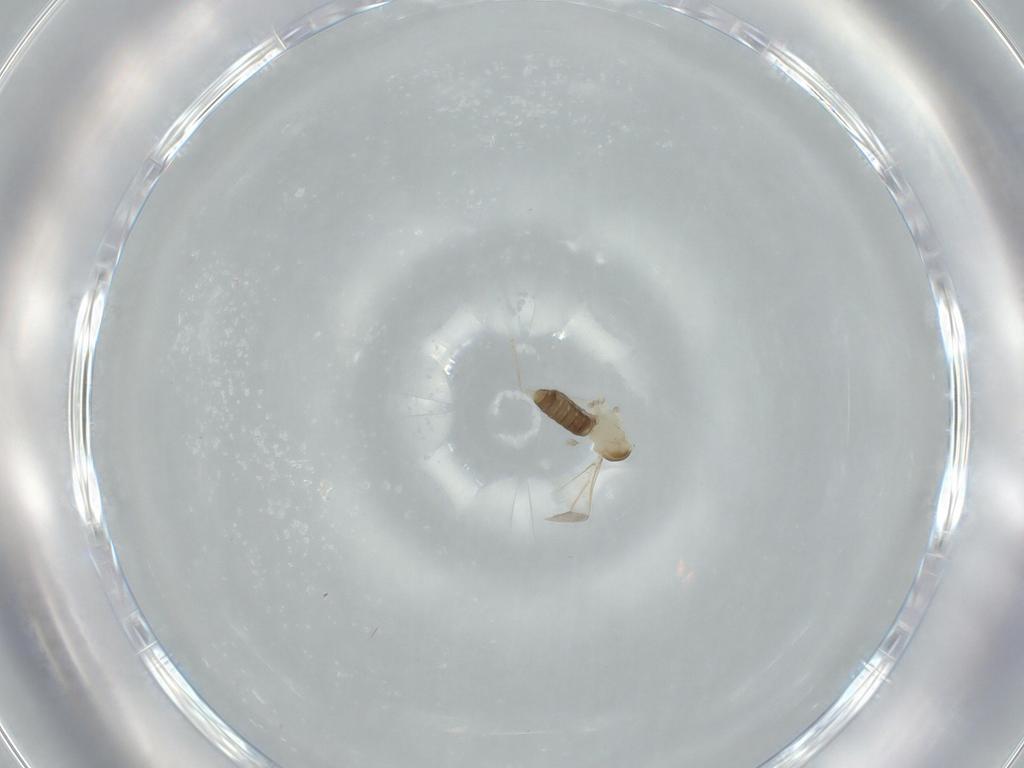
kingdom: Animalia
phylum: Arthropoda
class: Insecta
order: Diptera
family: Cecidomyiidae
